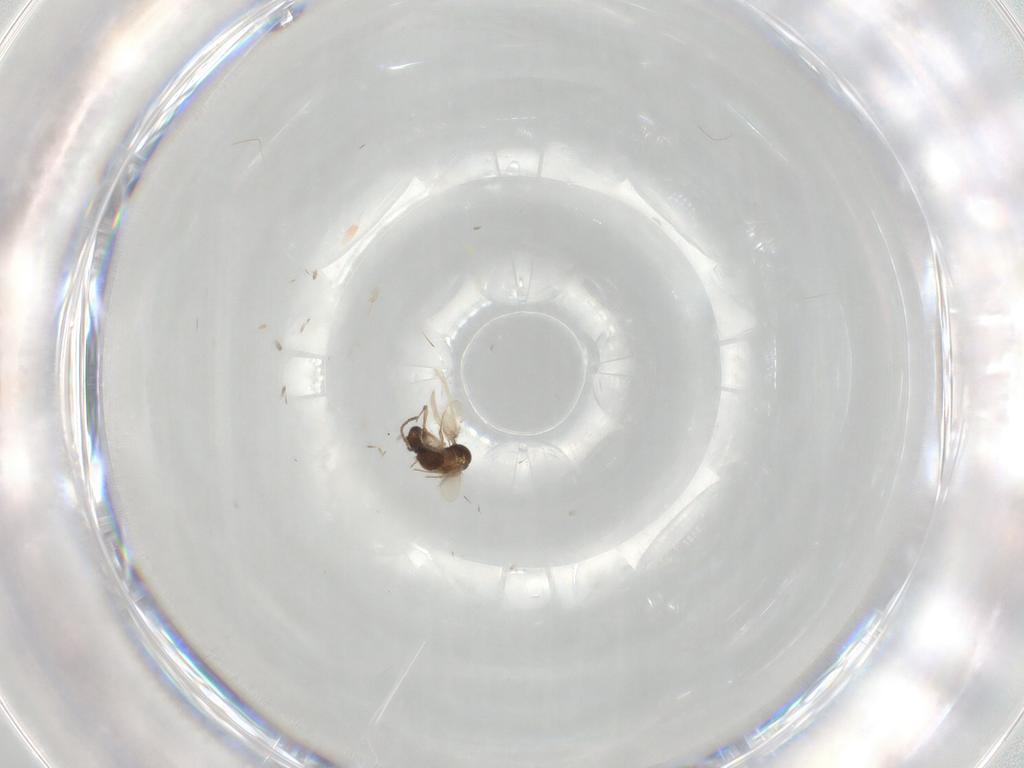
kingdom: Animalia
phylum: Arthropoda
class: Insecta
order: Hymenoptera
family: Scelionidae
